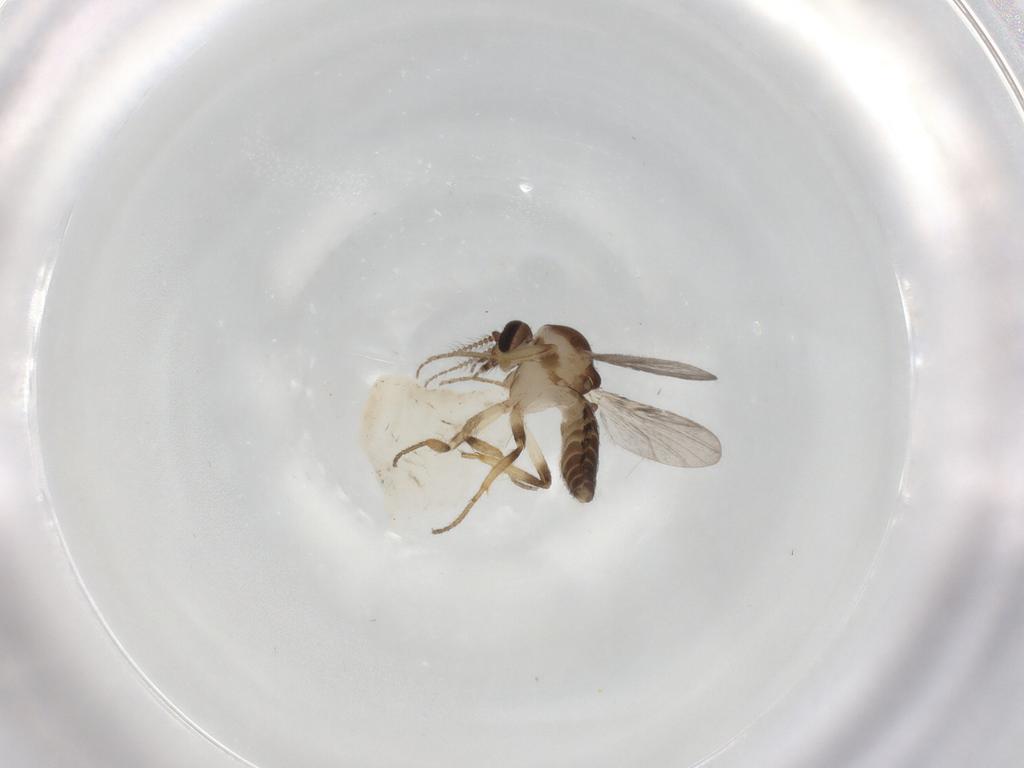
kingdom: Animalia
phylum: Arthropoda
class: Insecta
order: Diptera
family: Ceratopogonidae
